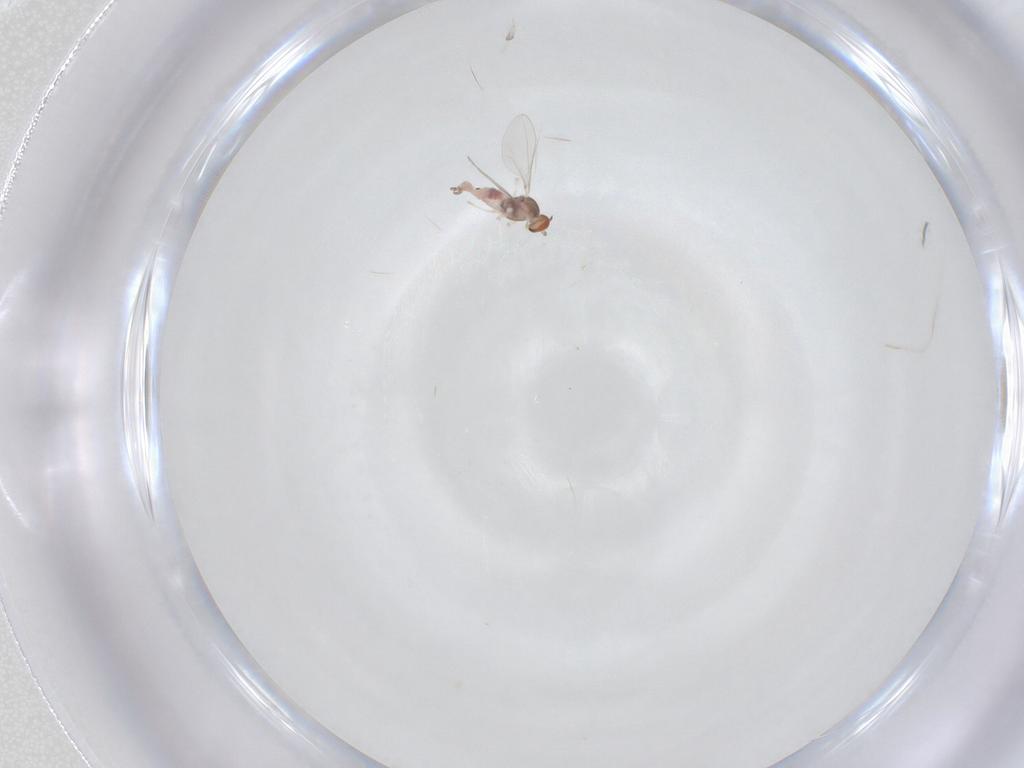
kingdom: Animalia
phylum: Arthropoda
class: Insecta
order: Diptera
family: Cecidomyiidae
